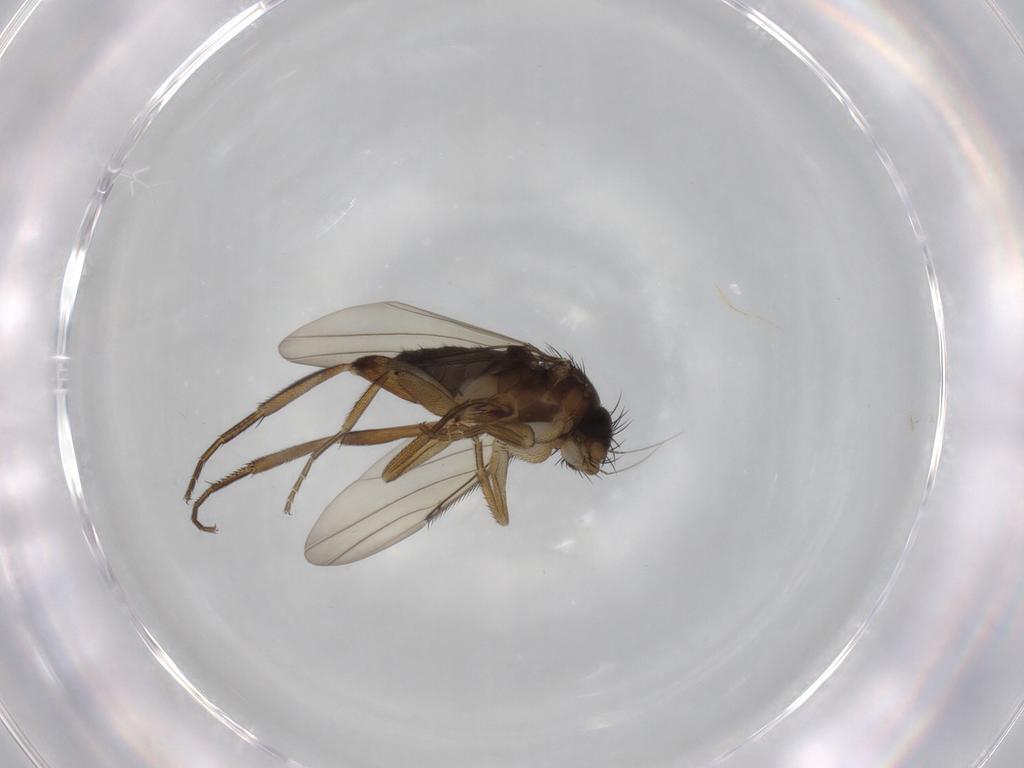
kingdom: Animalia
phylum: Arthropoda
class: Insecta
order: Diptera
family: Phoridae
